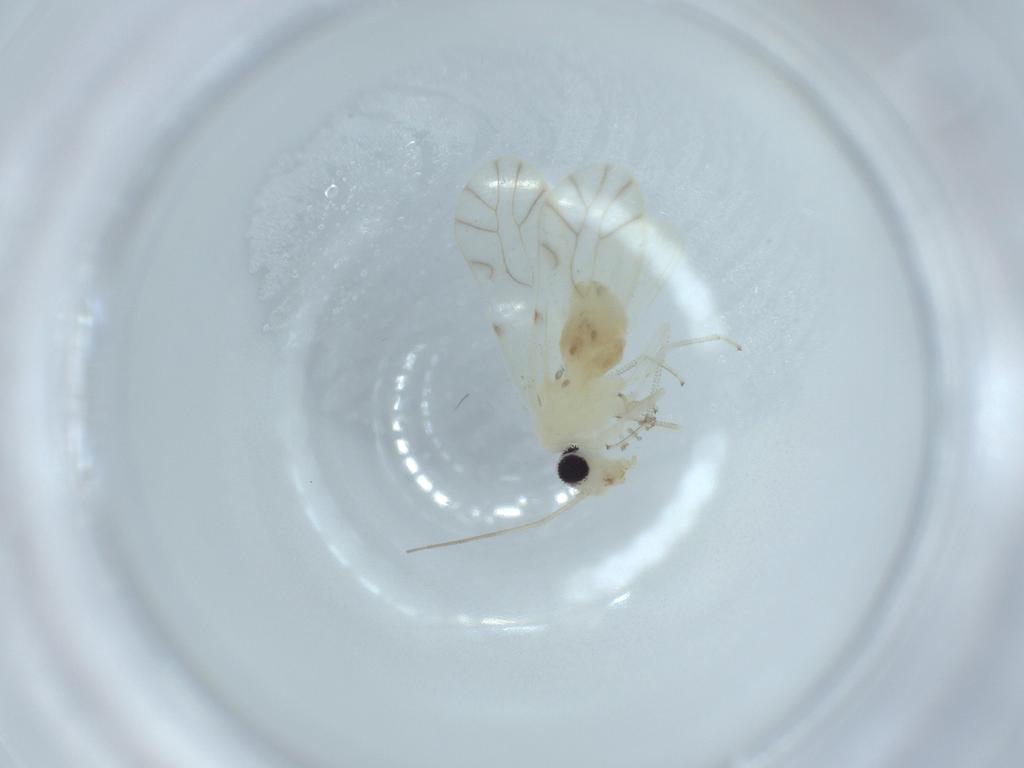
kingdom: Animalia
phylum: Arthropoda
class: Insecta
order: Psocodea
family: Caeciliusidae
